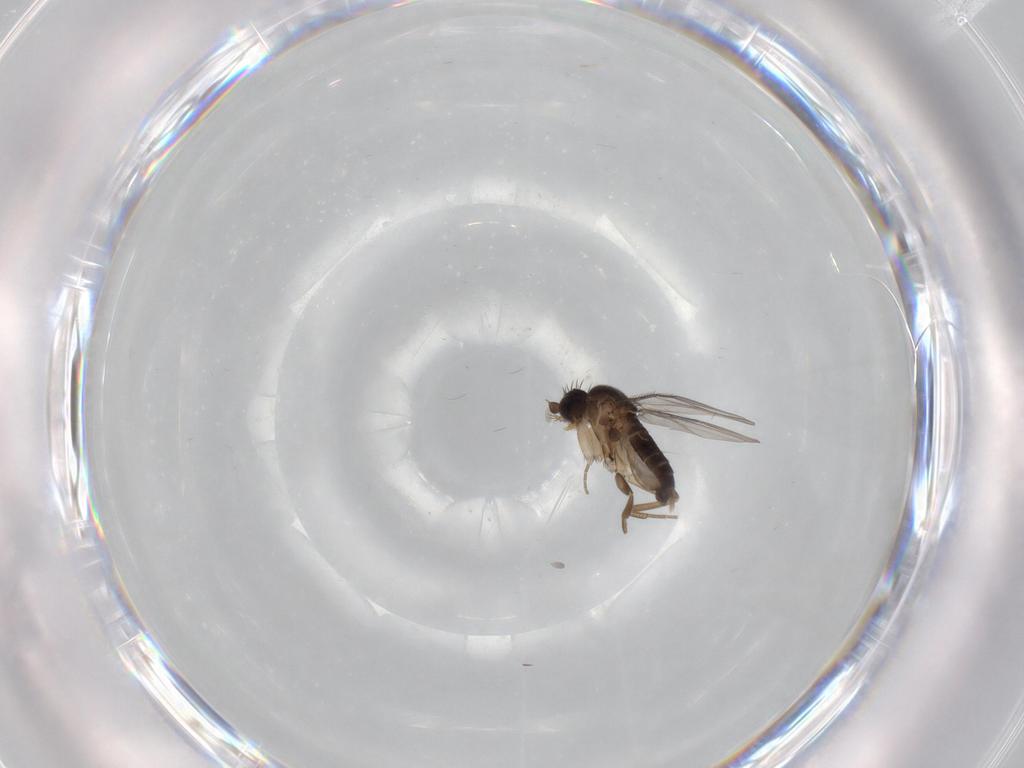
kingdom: Animalia
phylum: Arthropoda
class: Insecta
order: Diptera
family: Phoridae
